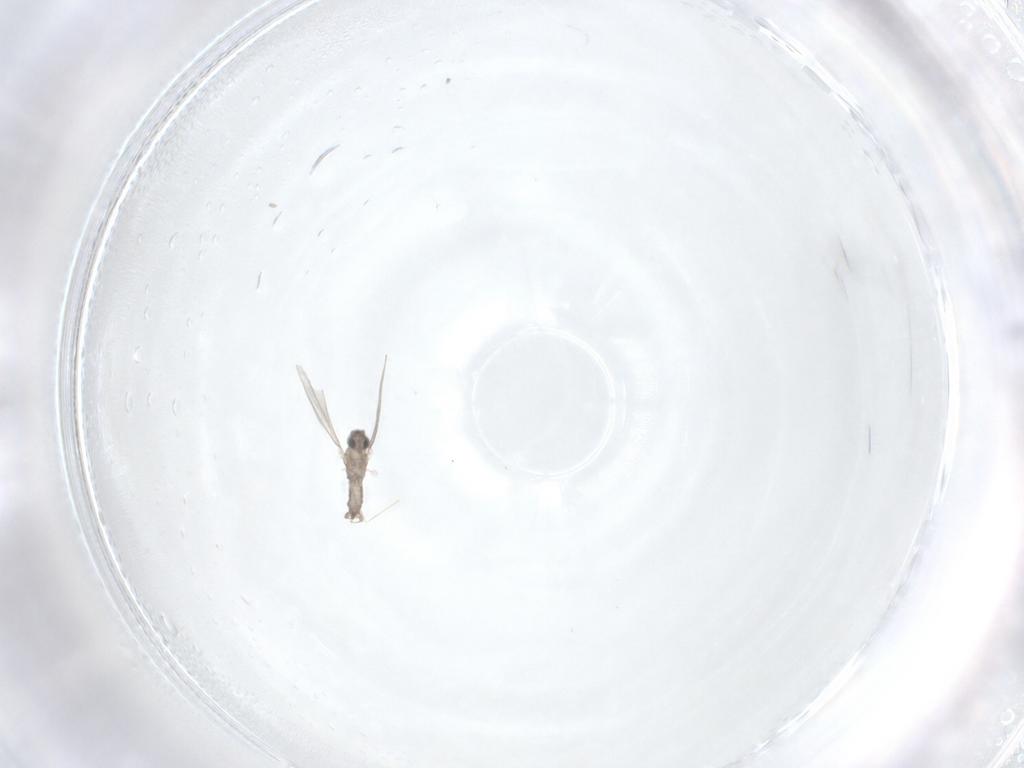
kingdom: Animalia
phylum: Arthropoda
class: Insecta
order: Diptera
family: Cecidomyiidae
